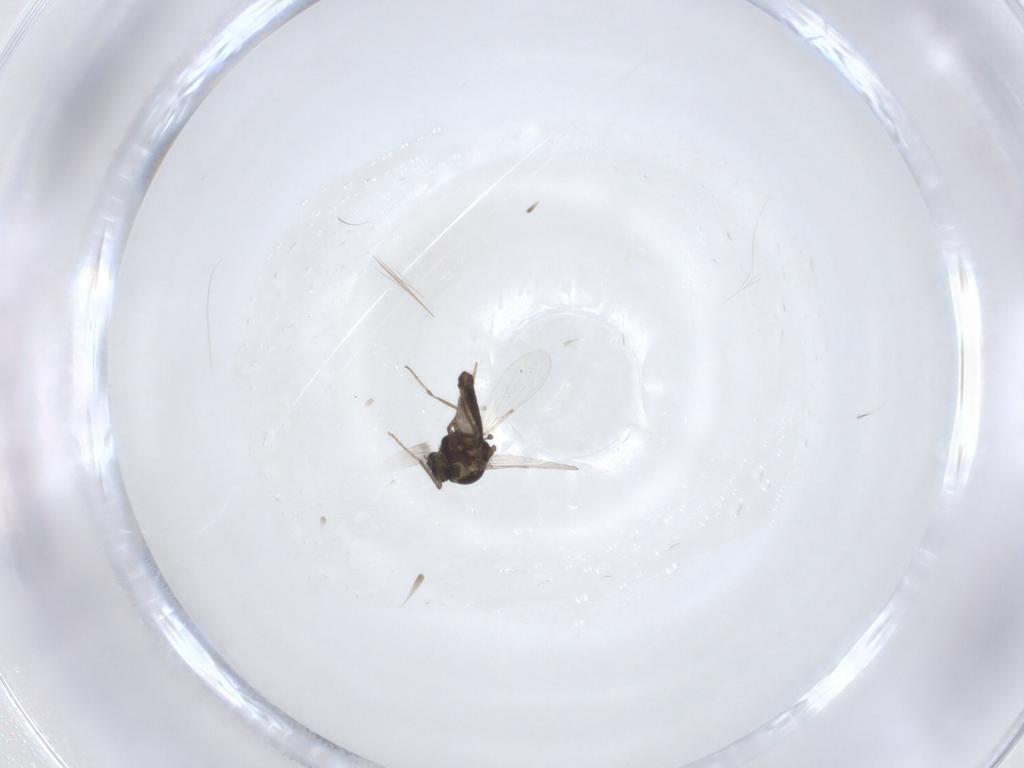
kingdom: Animalia
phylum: Arthropoda
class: Insecta
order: Diptera
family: Ceratopogonidae
